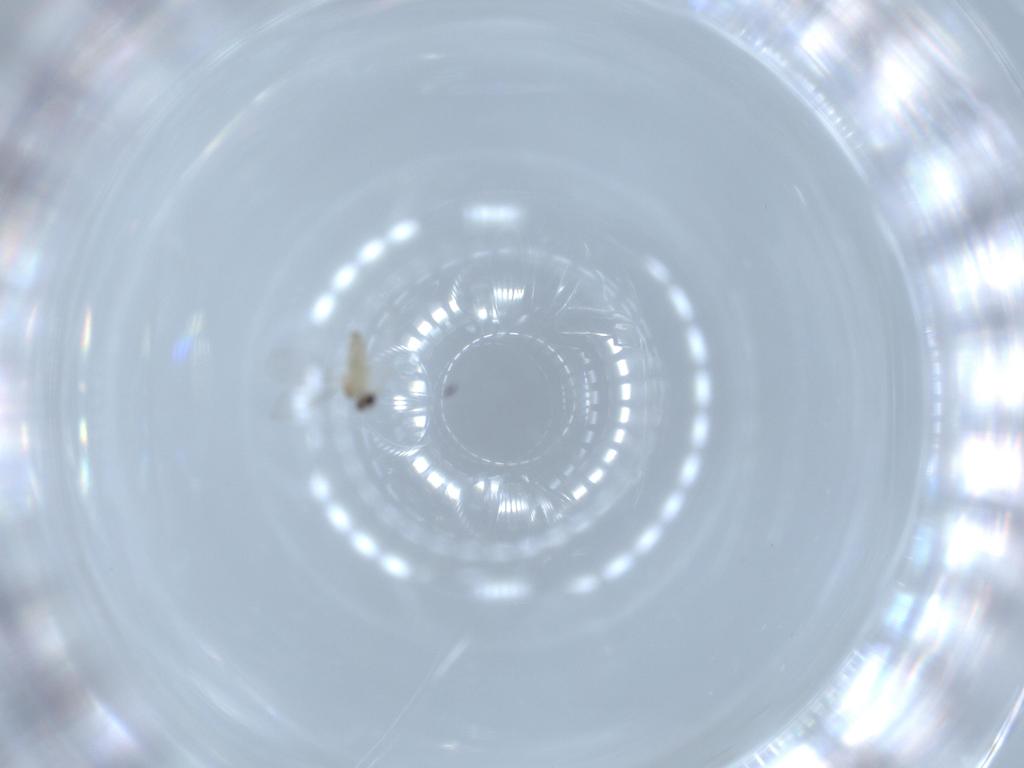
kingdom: Animalia
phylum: Arthropoda
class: Insecta
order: Diptera
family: Cecidomyiidae
